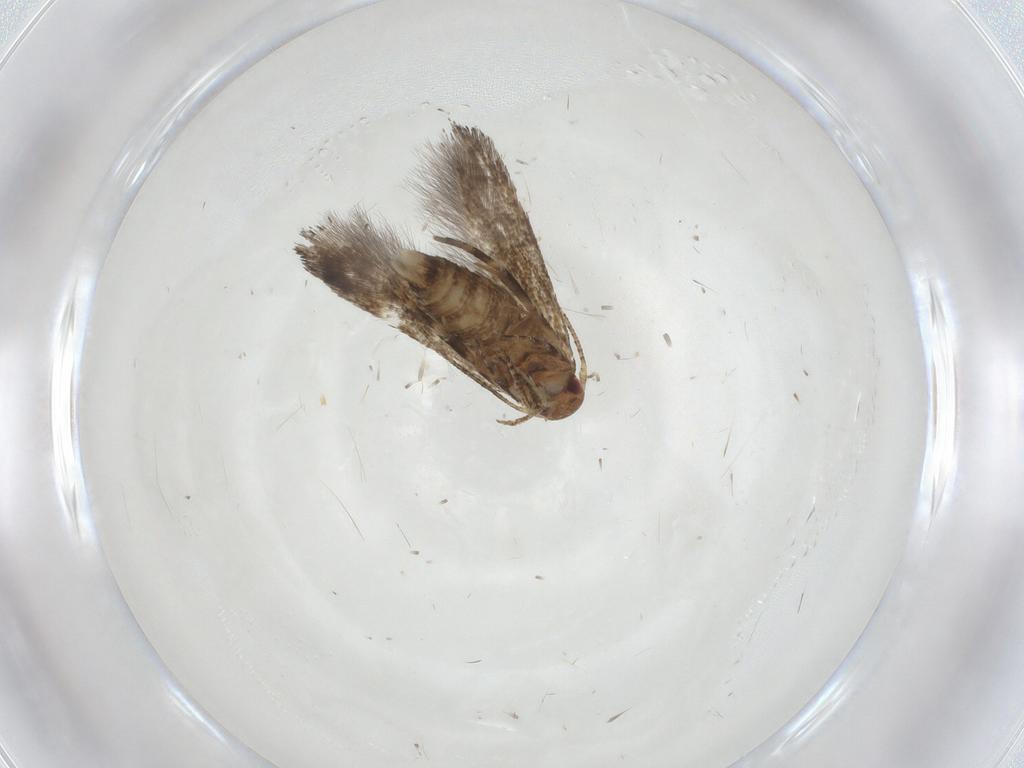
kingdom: Animalia
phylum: Arthropoda
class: Insecta
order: Lepidoptera
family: Momphidae
